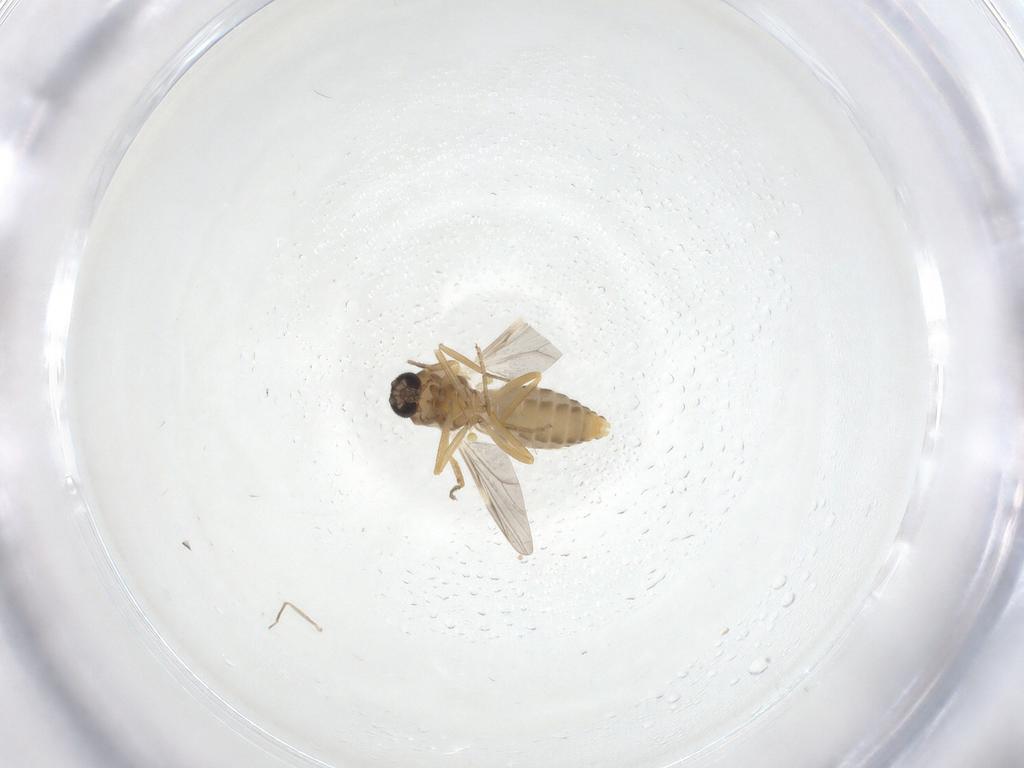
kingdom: Animalia
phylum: Arthropoda
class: Insecta
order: Diptera
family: Ceratopogonidae
